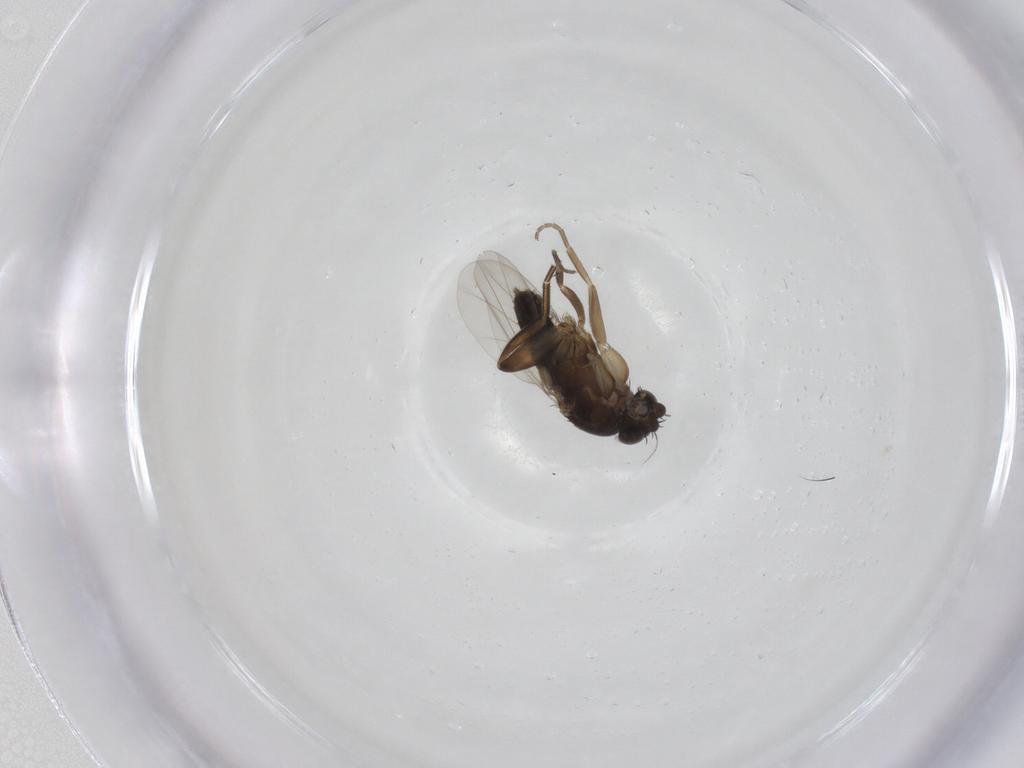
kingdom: Animalia
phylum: Arthropoda
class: Insecta
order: Diptera
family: Phoridae
